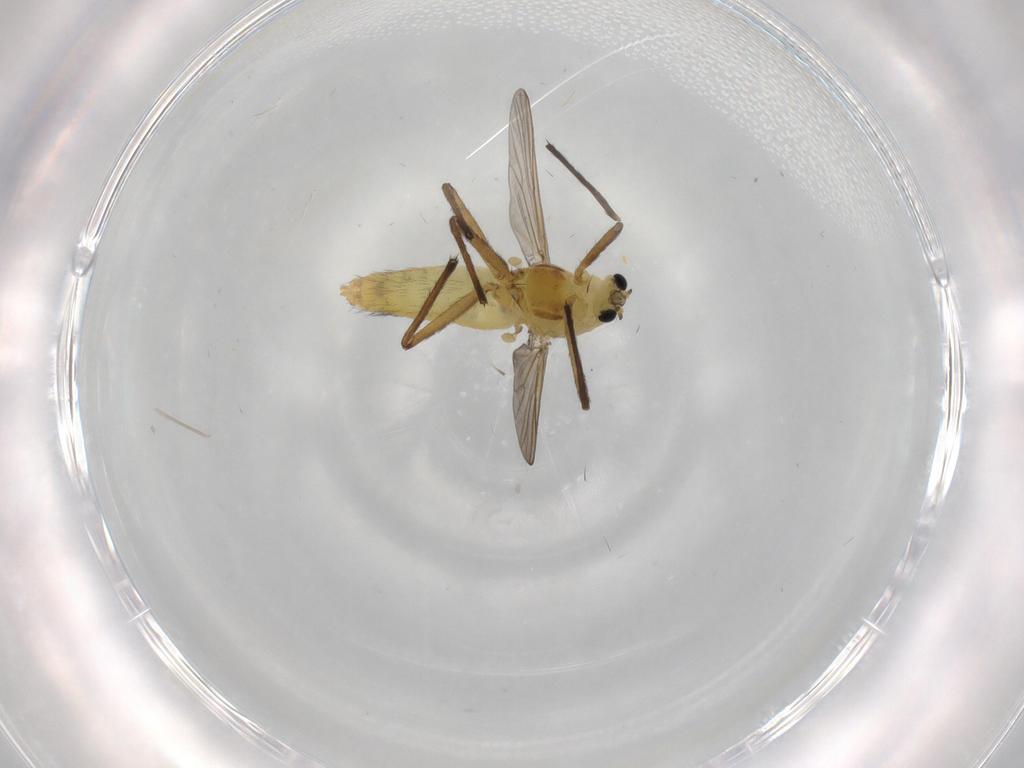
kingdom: Animalia
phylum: Arthropoda
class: Insecta
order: Diptera
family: Chironomidae
